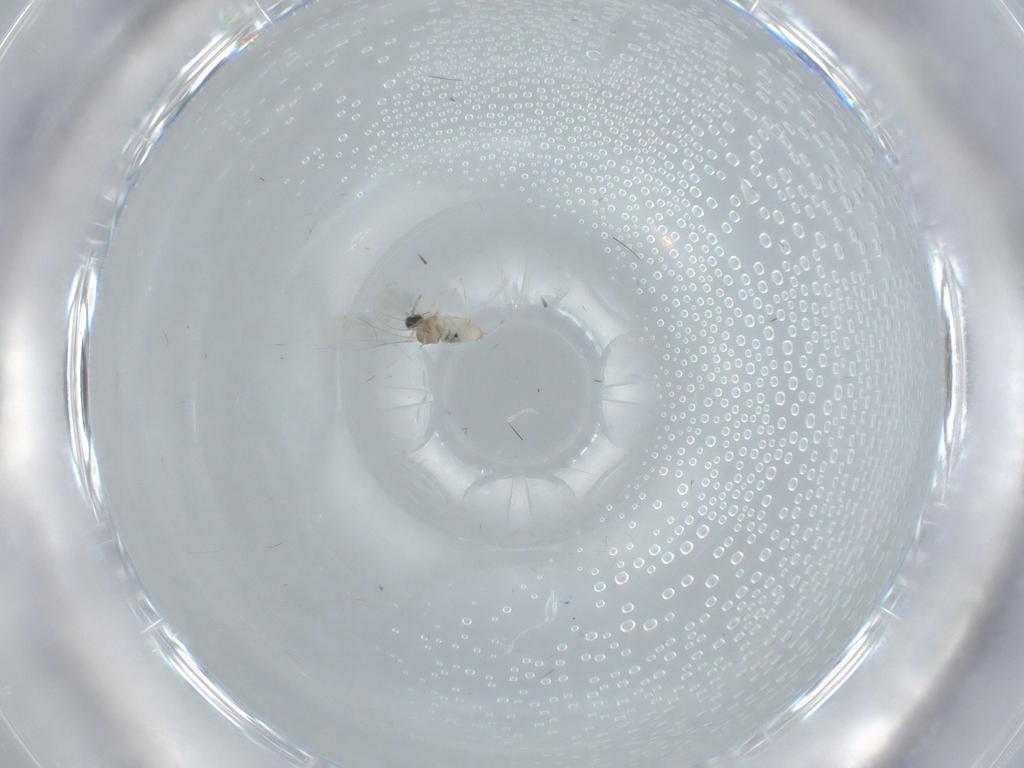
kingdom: Animalia
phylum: Arthropoda
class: Insecta
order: Diptera
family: Cecidomyiidae
